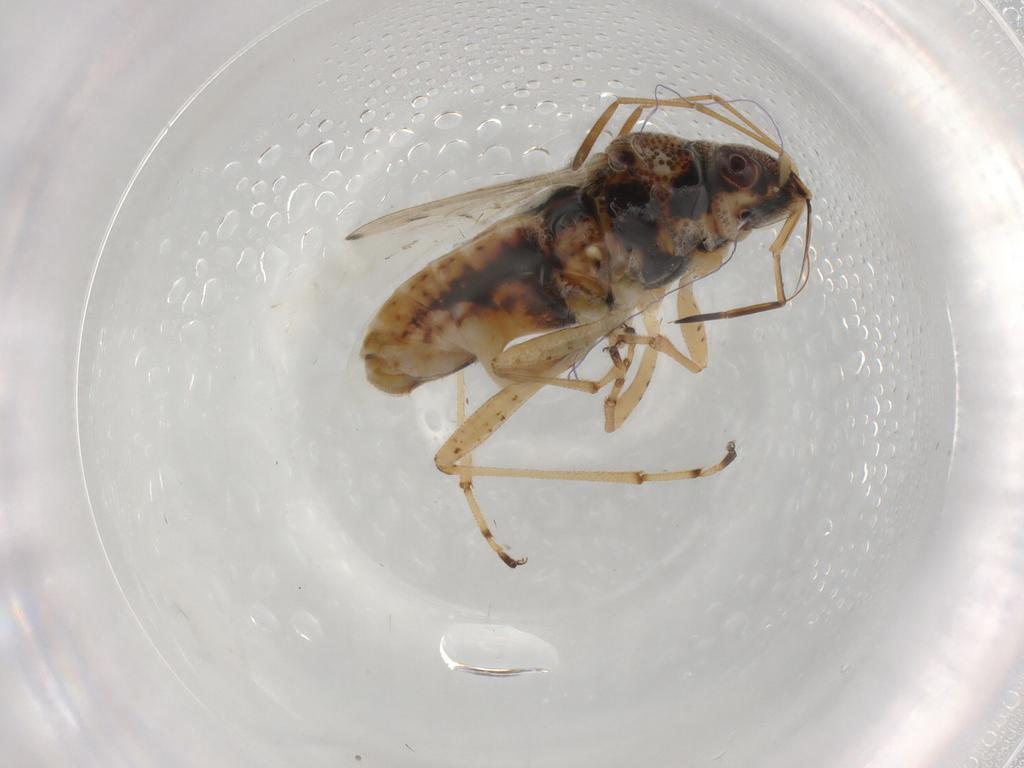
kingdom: Animalia
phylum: Arthropoda
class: Insecta
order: Hemiptera
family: Lygaeidae
